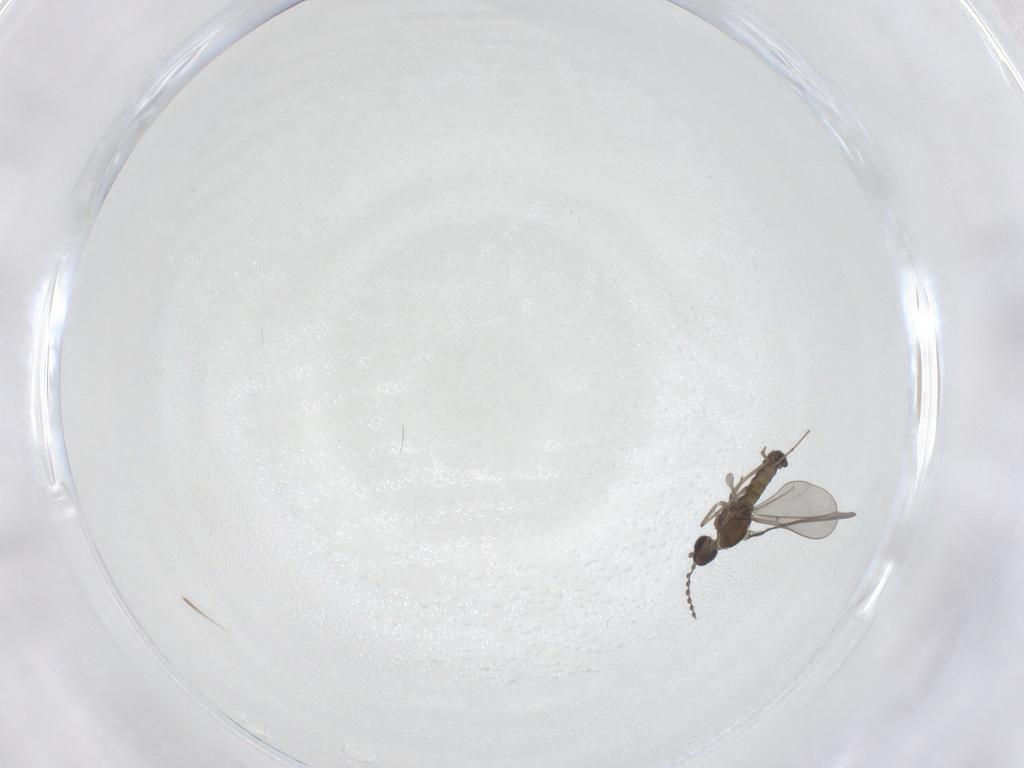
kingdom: Animalia
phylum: Arthropoda
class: Insecta
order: Diptera
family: Cecidomyiidae
